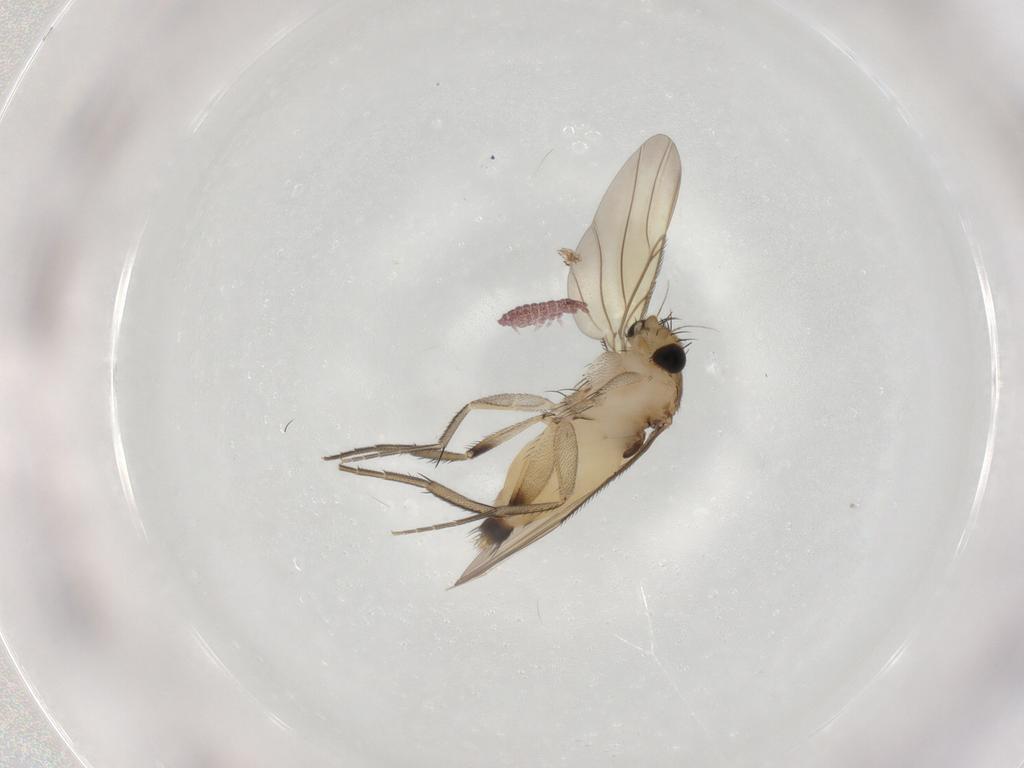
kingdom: Animalia
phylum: Arthropoda
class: Insecta
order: Diptera
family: Phoridae
